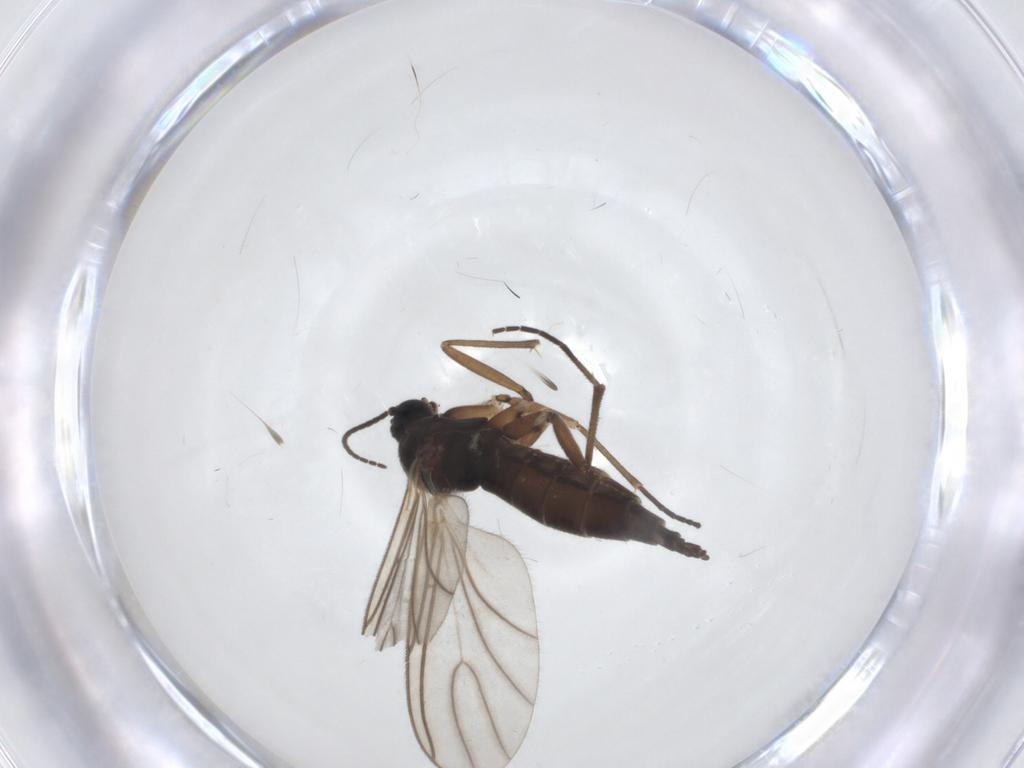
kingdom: Animalia
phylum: Arthropoda
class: Insecta
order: Diptera
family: Sciaridae
